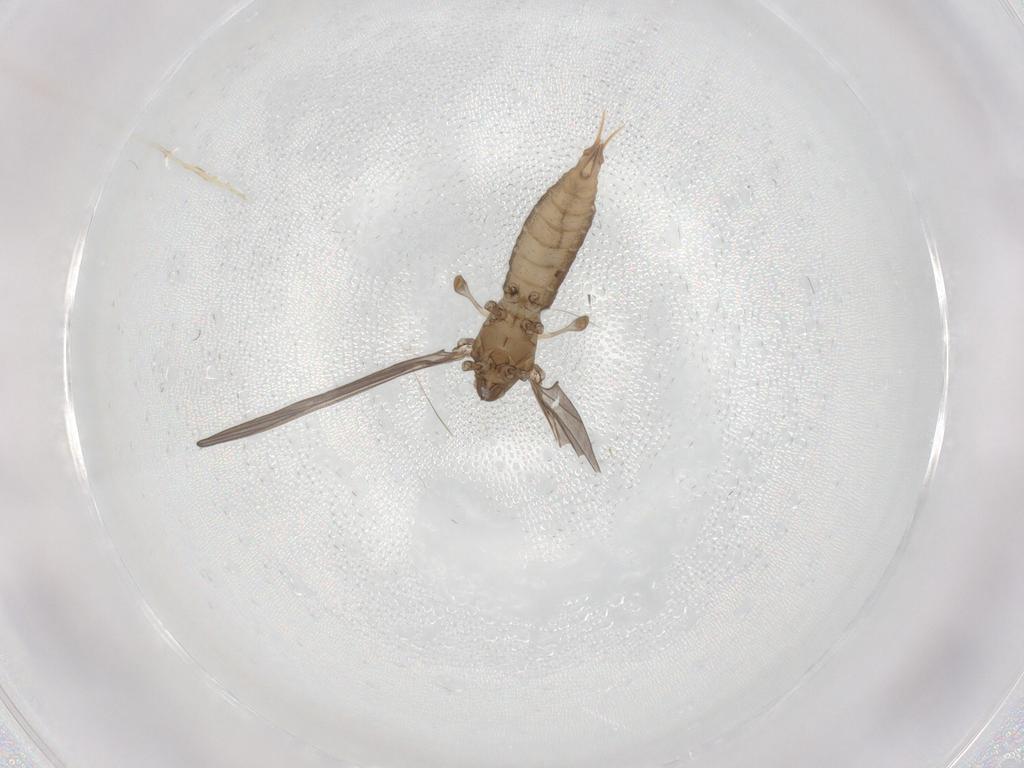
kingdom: Animalia
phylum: Arthropoda
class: Insecta
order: Diptera
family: Limoniidae
